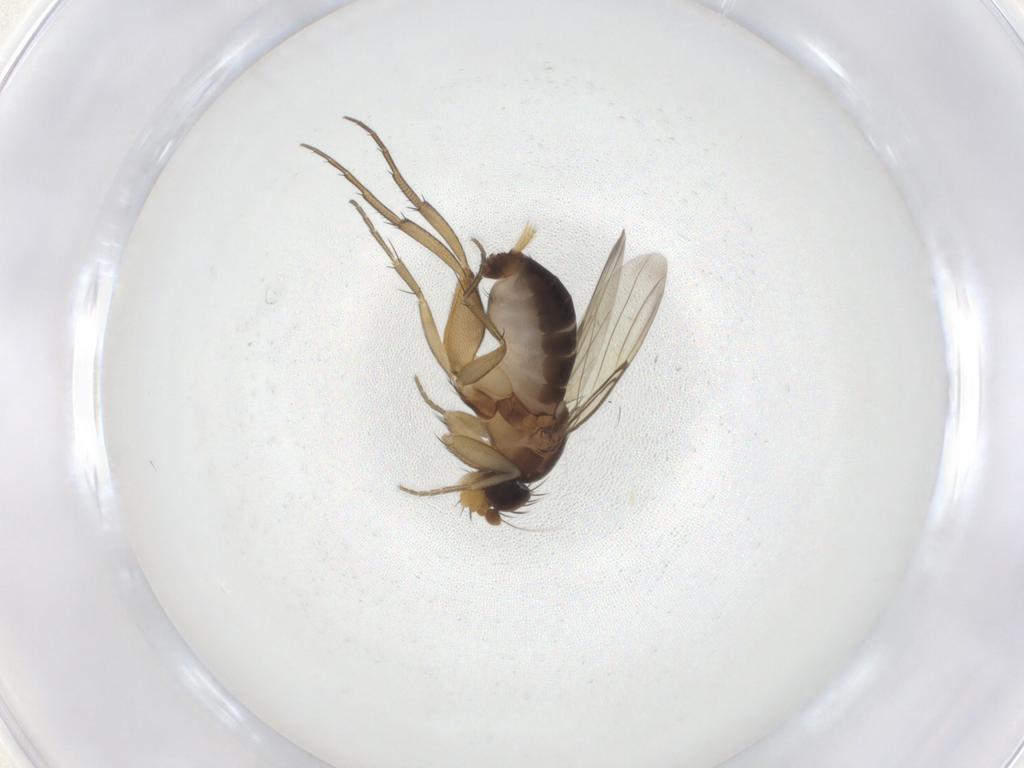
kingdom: Animalia
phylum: Arthropoda
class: Insecta
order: Diptera
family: Phoridae
